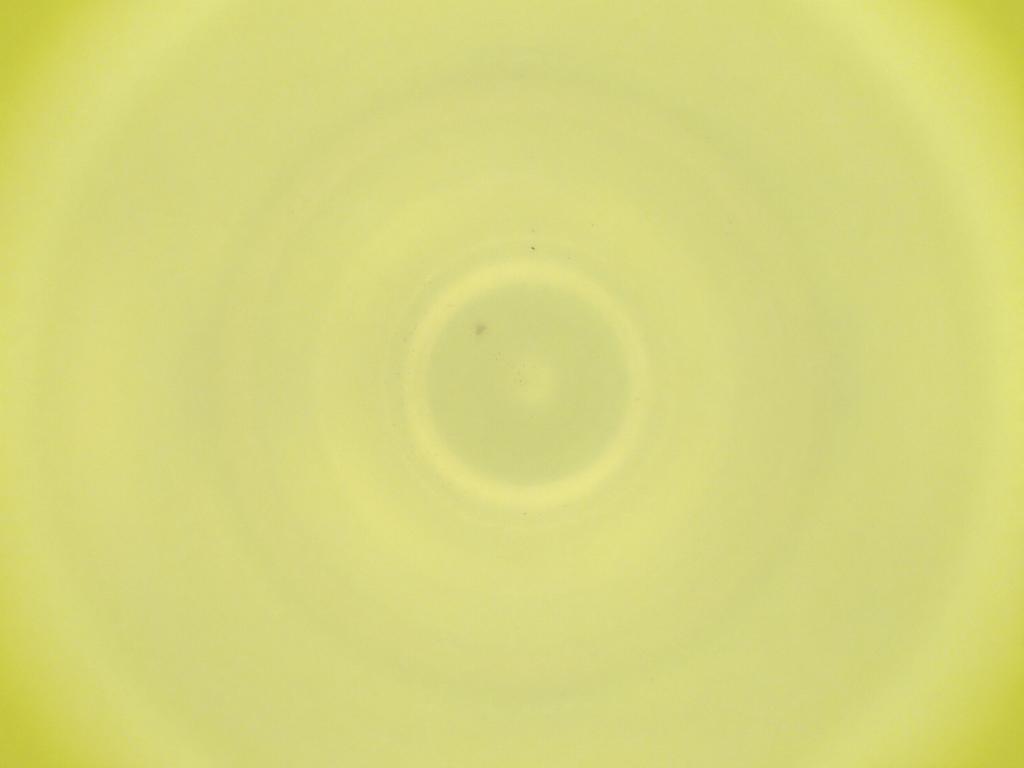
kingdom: Animalia
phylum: Arthropoda
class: Insecta
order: Diptera
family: Cecidomyiidae
